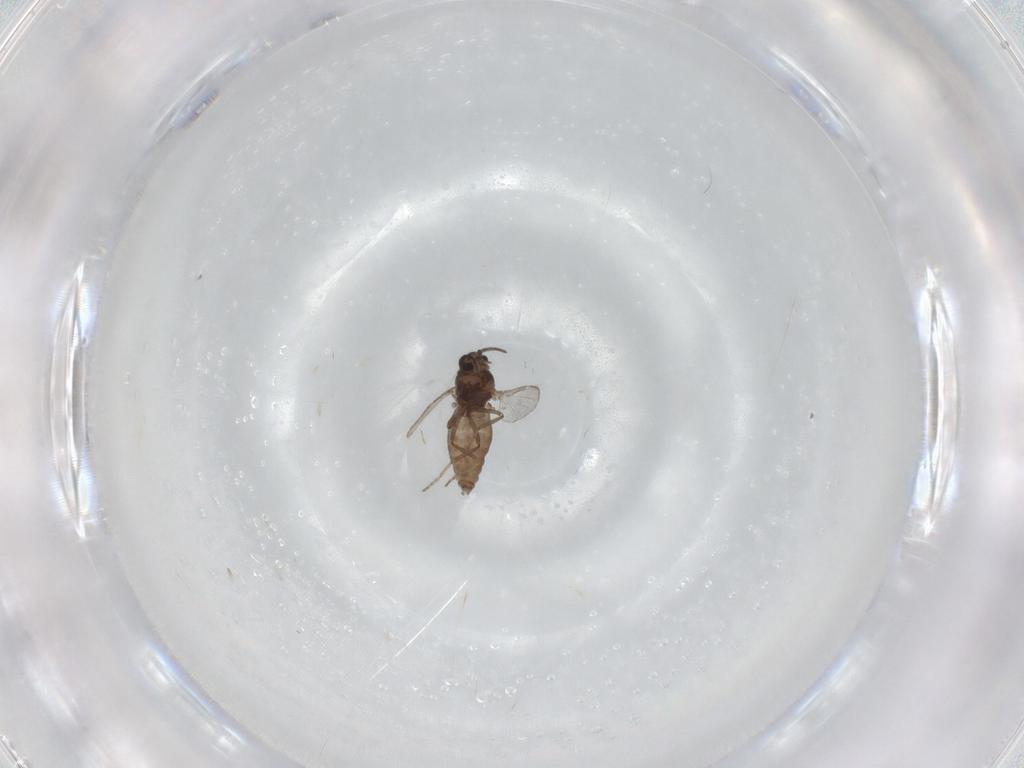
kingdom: Animalia
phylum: Arthropoda
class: Insecta
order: Diptera
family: Ceratopogonidae
